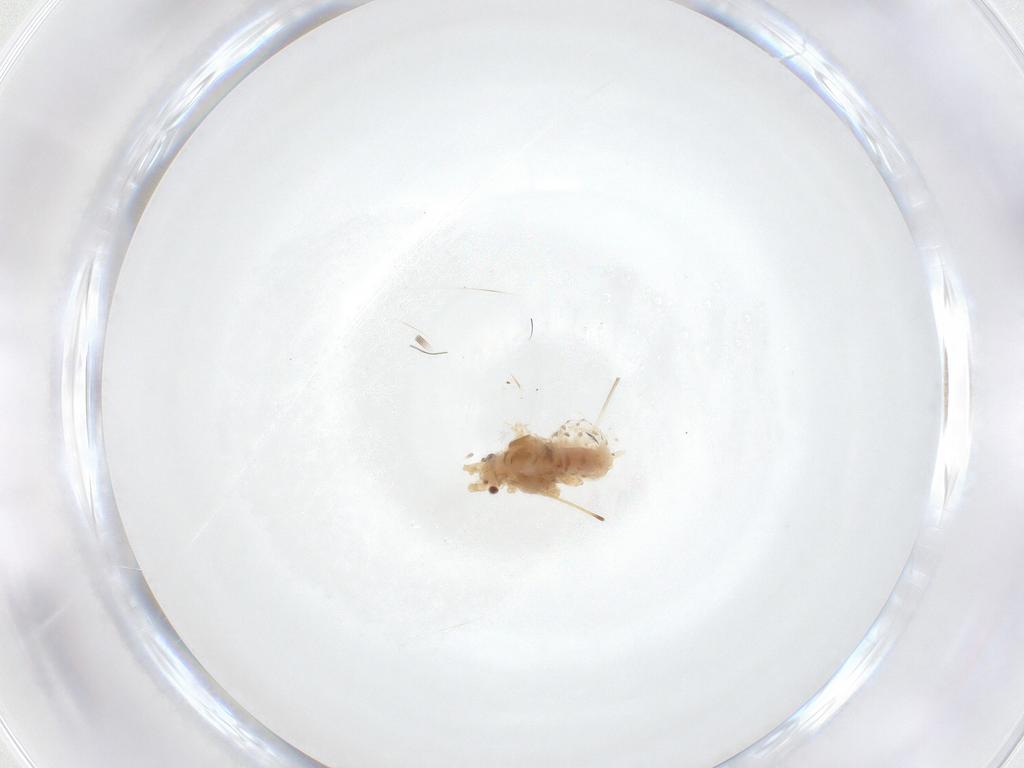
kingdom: Animalia
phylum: Arthropoda
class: Insecta
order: Hemiptera
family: Aphididae
